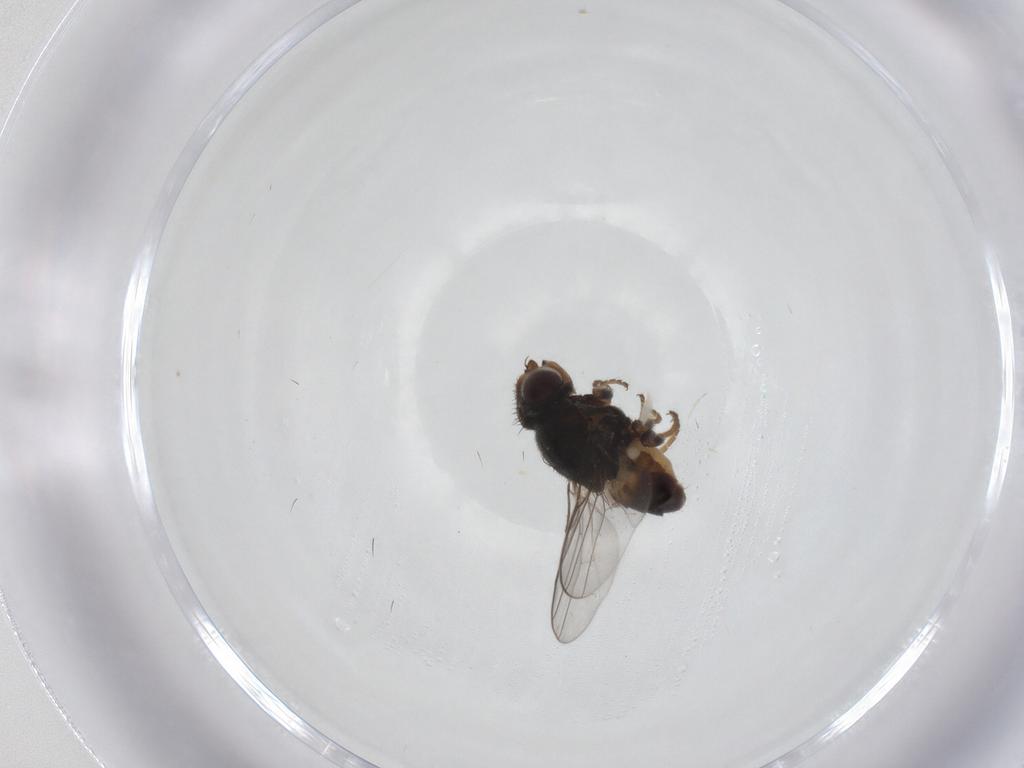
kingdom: Animalia
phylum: Arthropoda
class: Insecta
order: Diptera
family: Chloropidae
